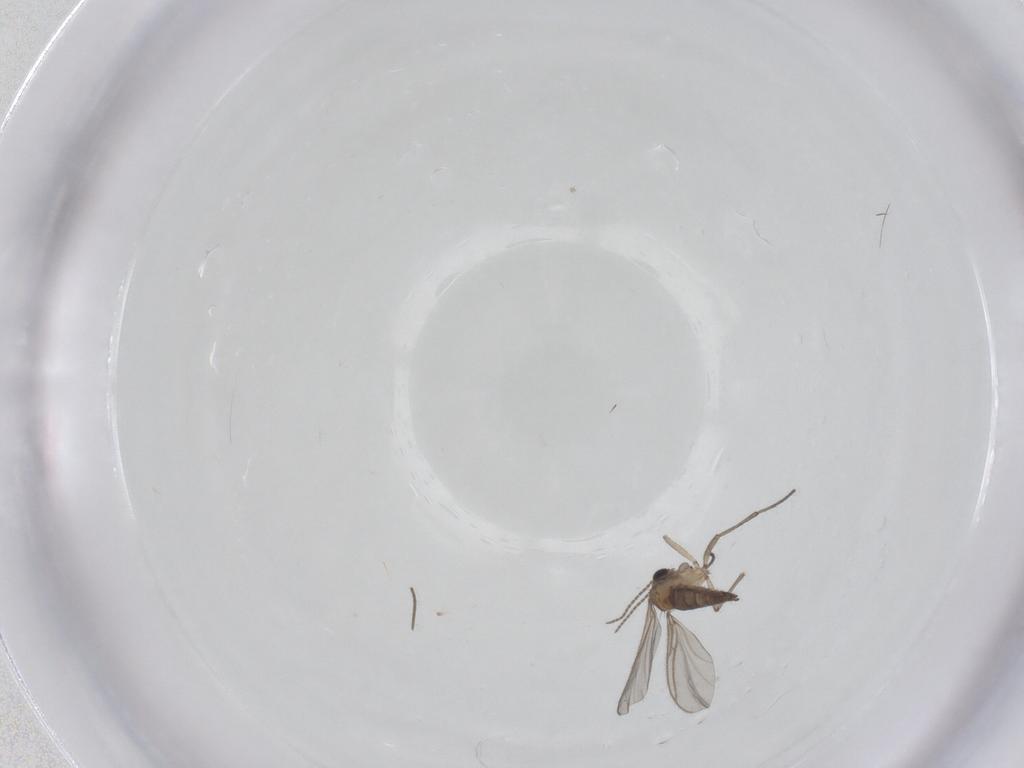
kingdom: Animalia
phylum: Arthropoda
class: Insecta
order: Diptera
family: Sciaridae
